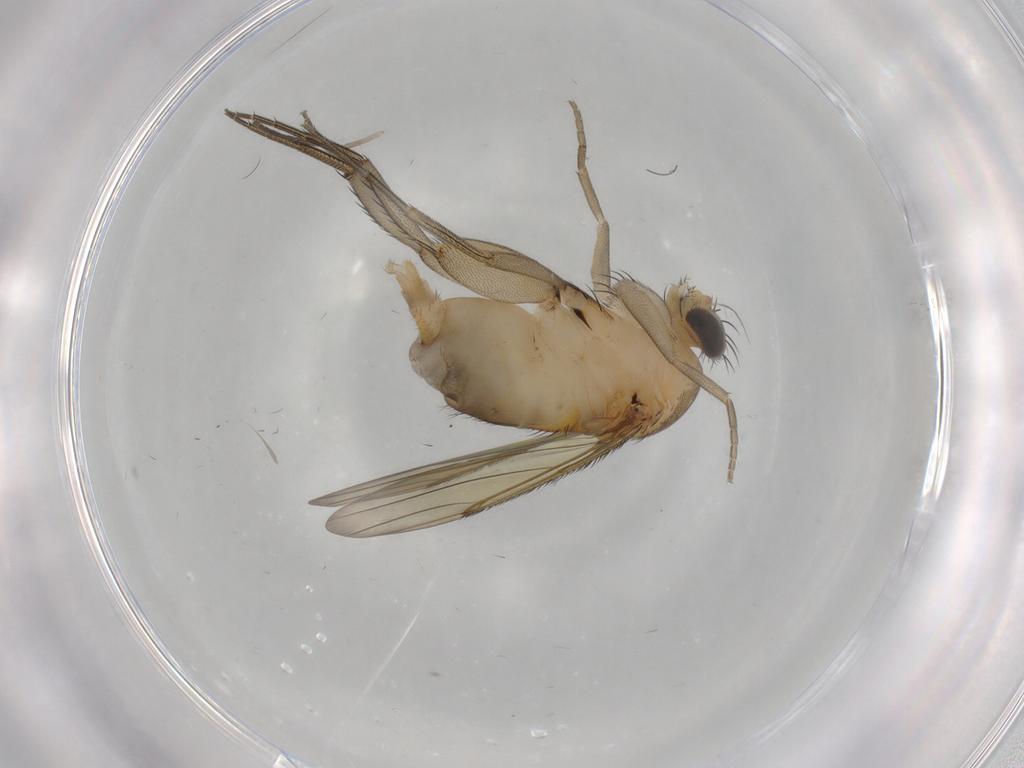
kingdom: Animalia
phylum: Arthropoda
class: Insecta
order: Diptera
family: Phoridae
